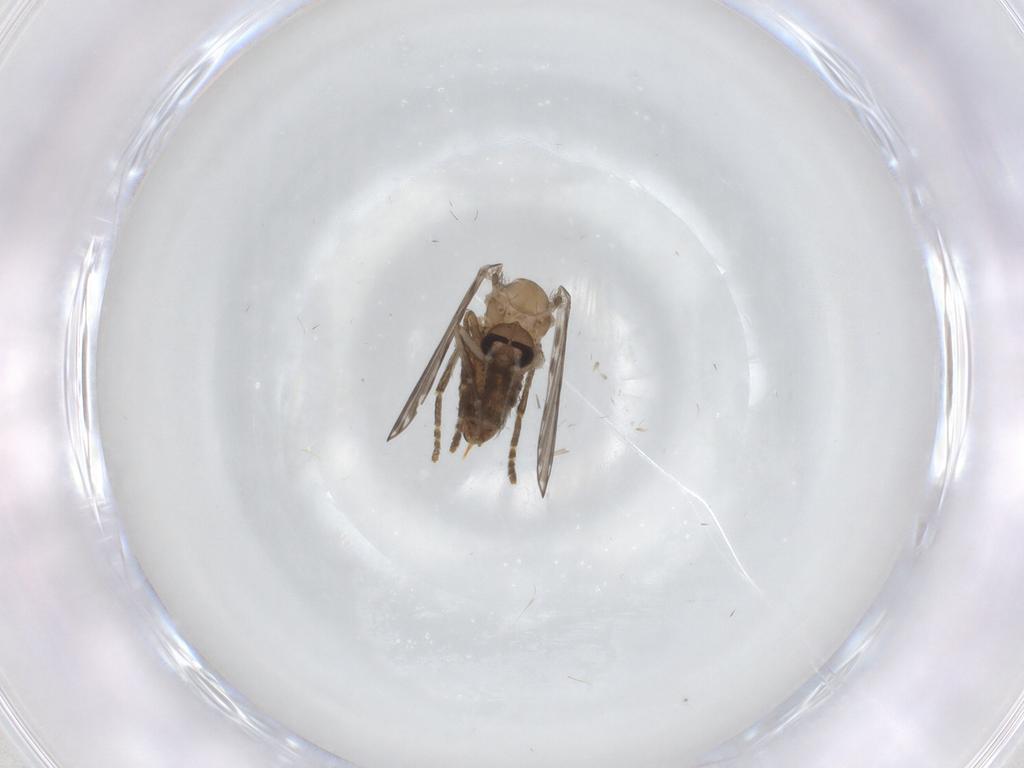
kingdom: Animalia
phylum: Arthropoda
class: Insecta
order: Diptera
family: Psychodidae
